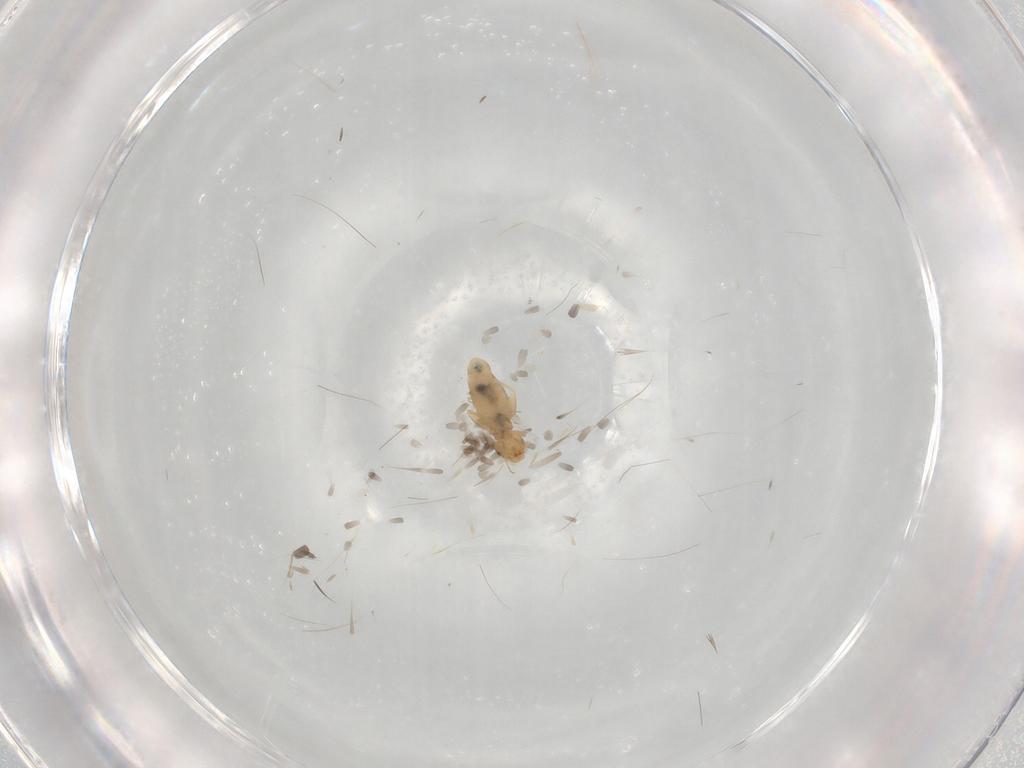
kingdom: Animalia
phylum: Arthropoda
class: Insecta
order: Psocodea
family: Liposcelididae
